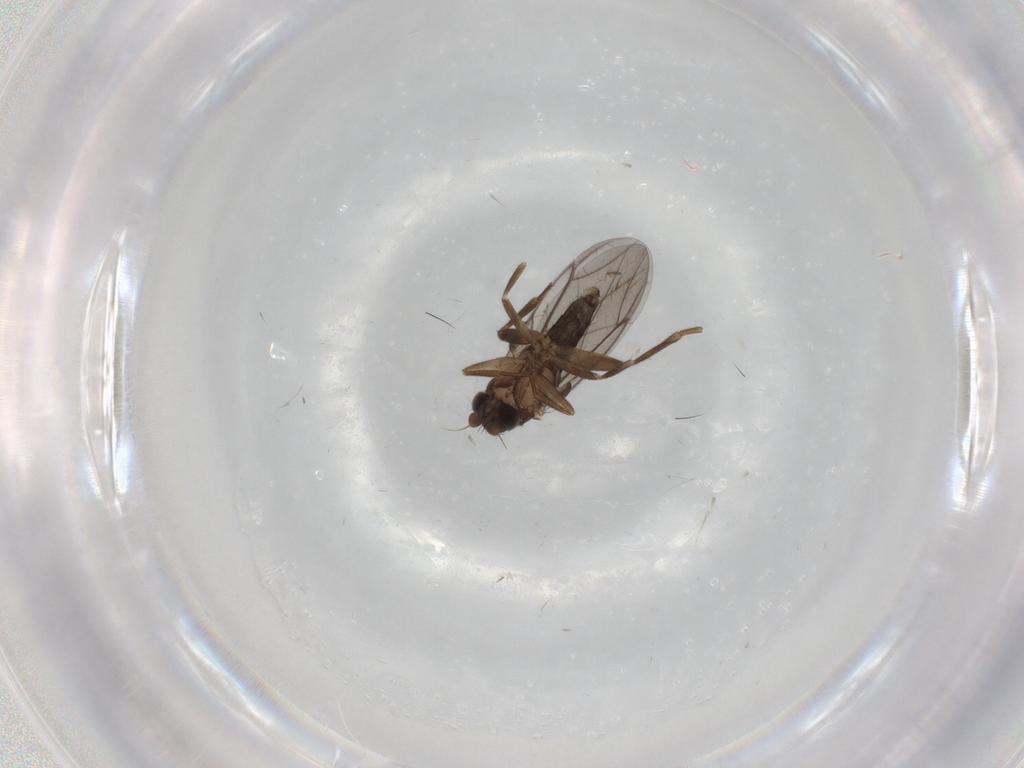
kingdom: Animalia
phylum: Arthropoda
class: Insecta
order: Diptera
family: Chironomidae
